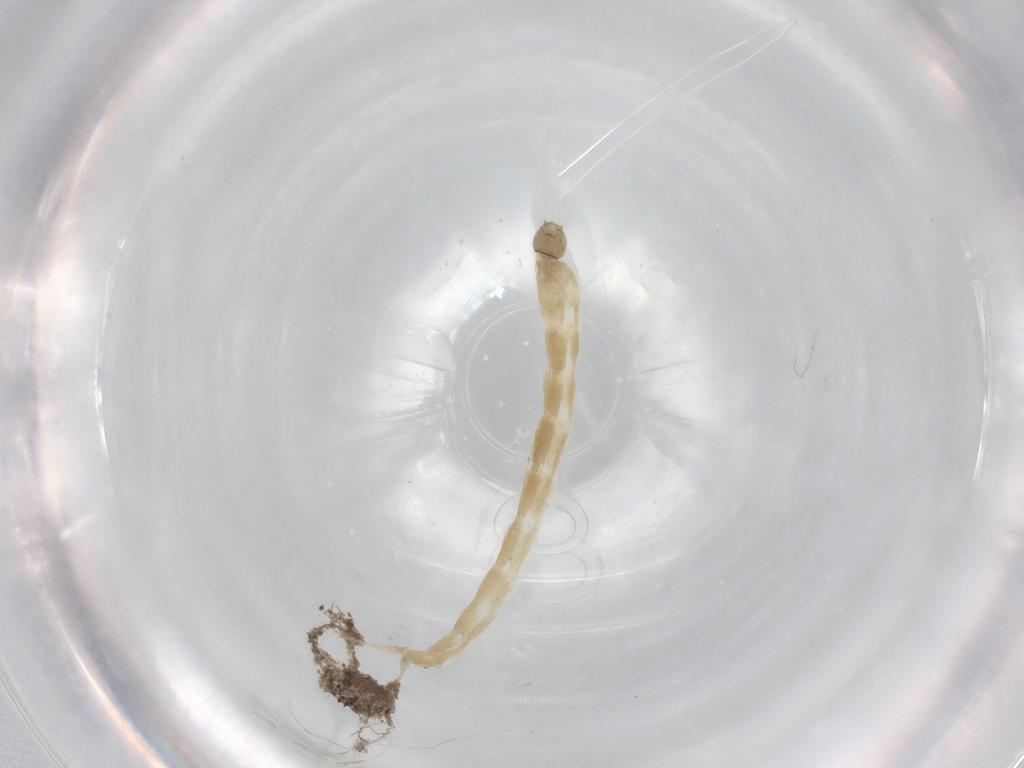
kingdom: Animalia
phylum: Arthropoda
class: Insecta
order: Diptera
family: Chironomidae
